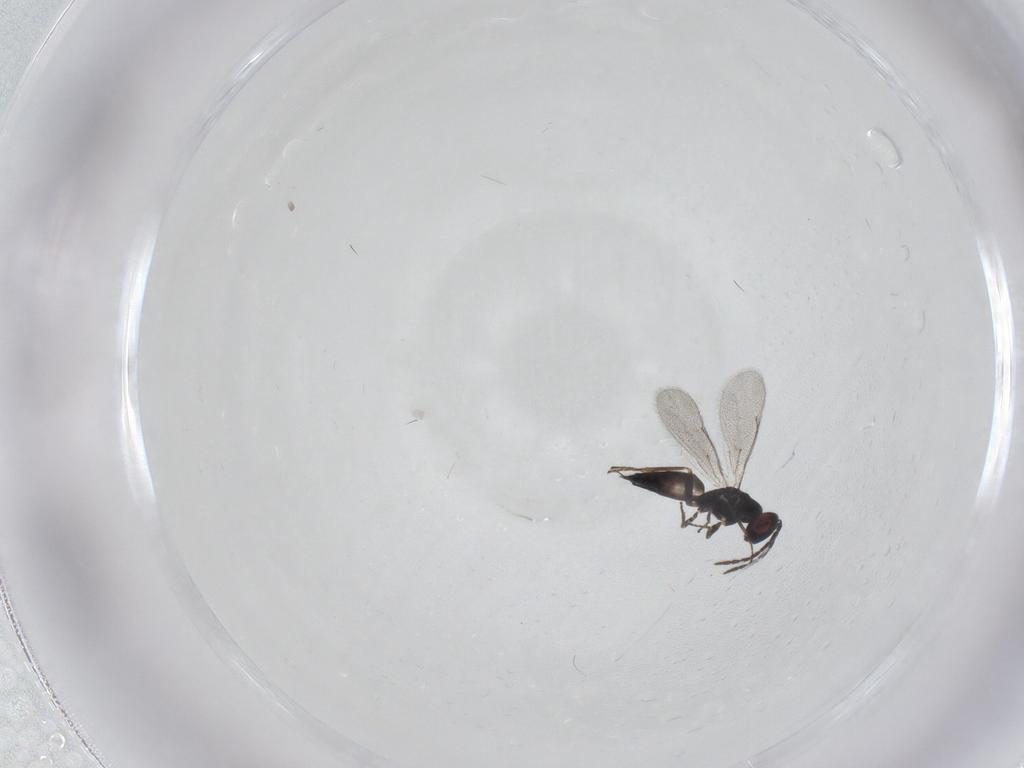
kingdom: Animalia
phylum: Arthropoda
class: Insecta
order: Hymenoptera
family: Eulophidae
